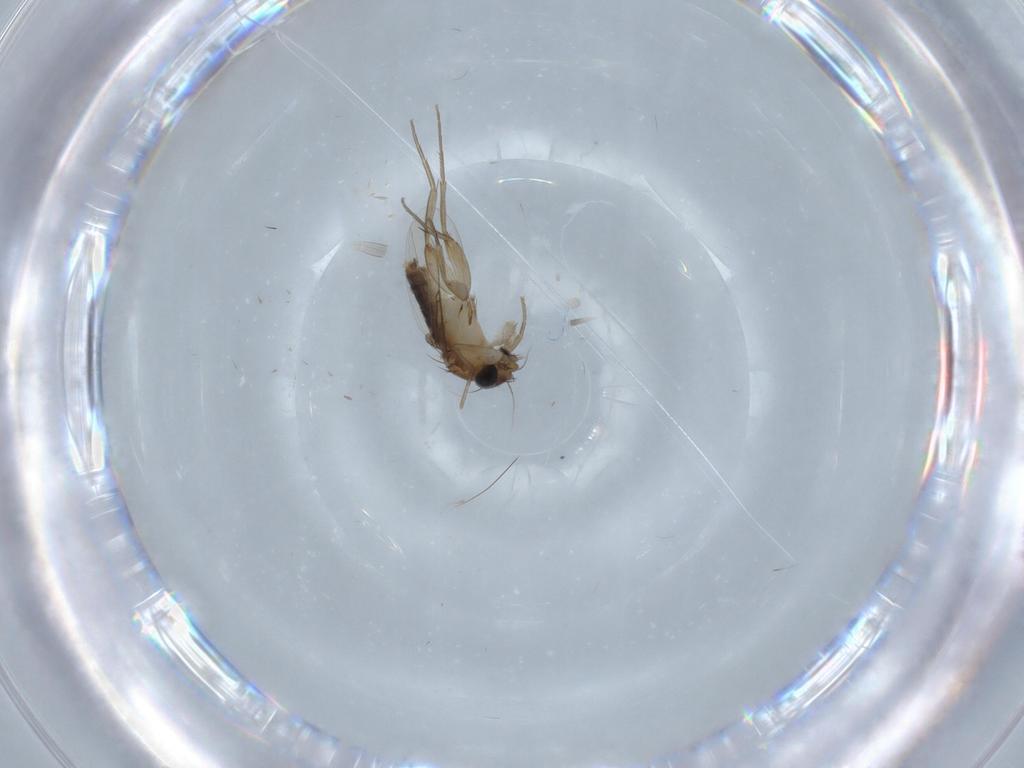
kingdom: Animalia
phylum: Arthropoda
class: Insecta
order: Diptera
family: Phoridae
